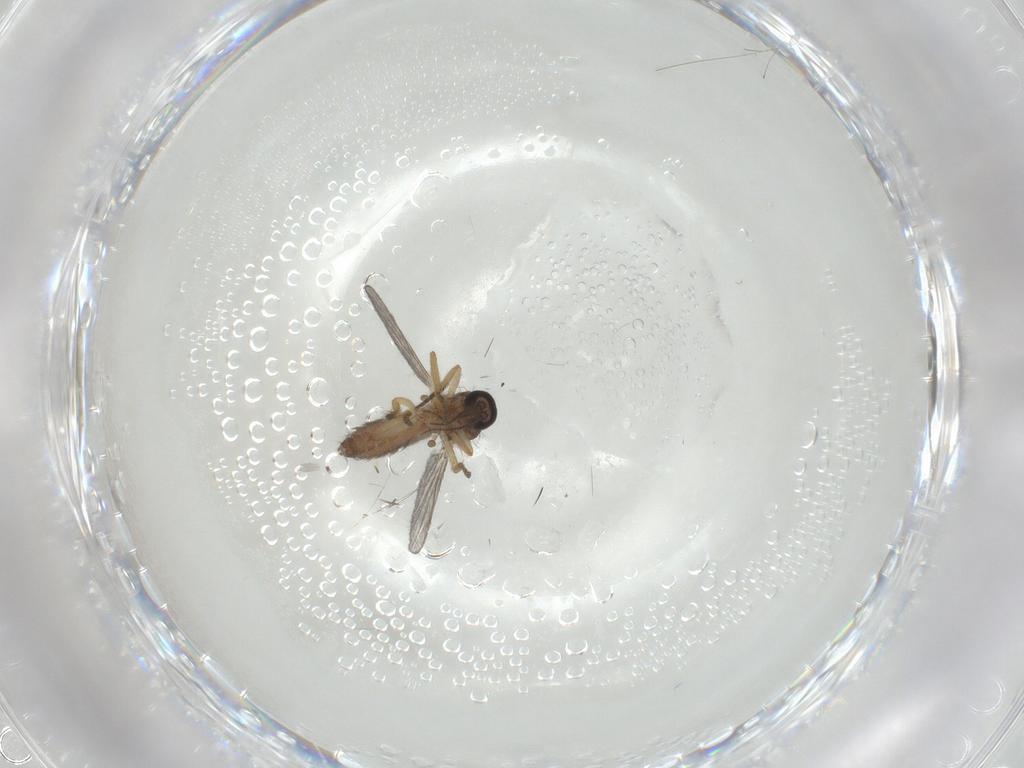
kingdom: Animalia
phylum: Arthropoda
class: Insecta
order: Diptera
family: Ceratopogonidae
